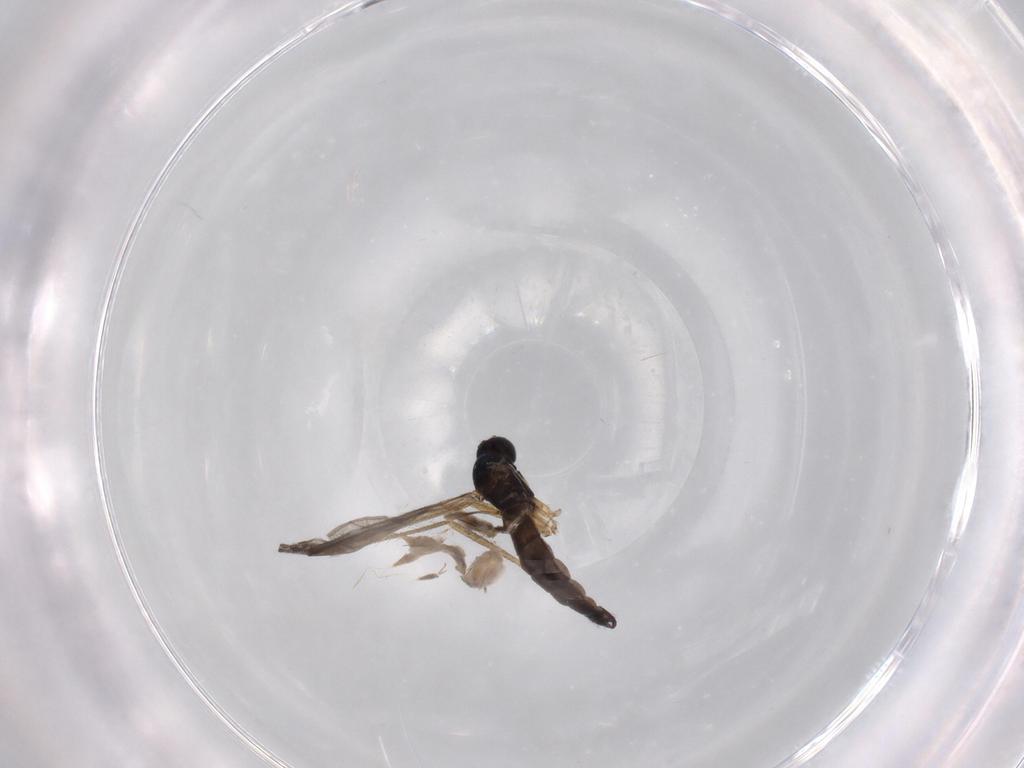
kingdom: Animalia
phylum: Arthropoda
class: Insecta
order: Diptera
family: Sciaridae
